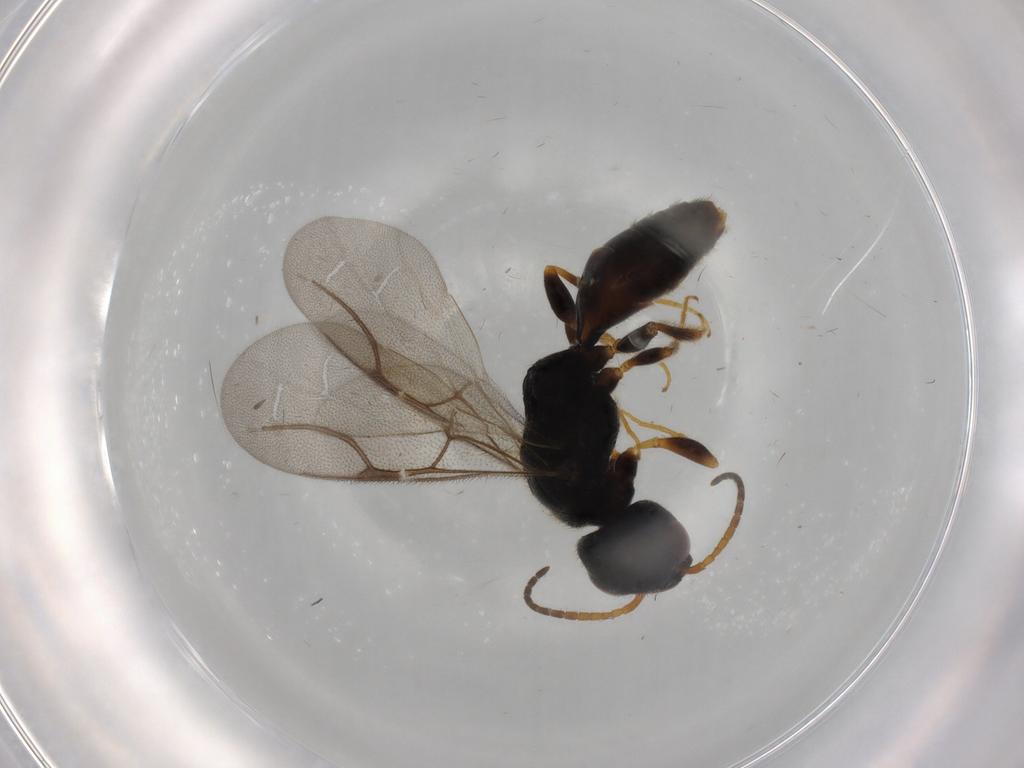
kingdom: Animalia
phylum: Arthropoda
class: Insecta
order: Hymenoptera
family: Bethylidae
